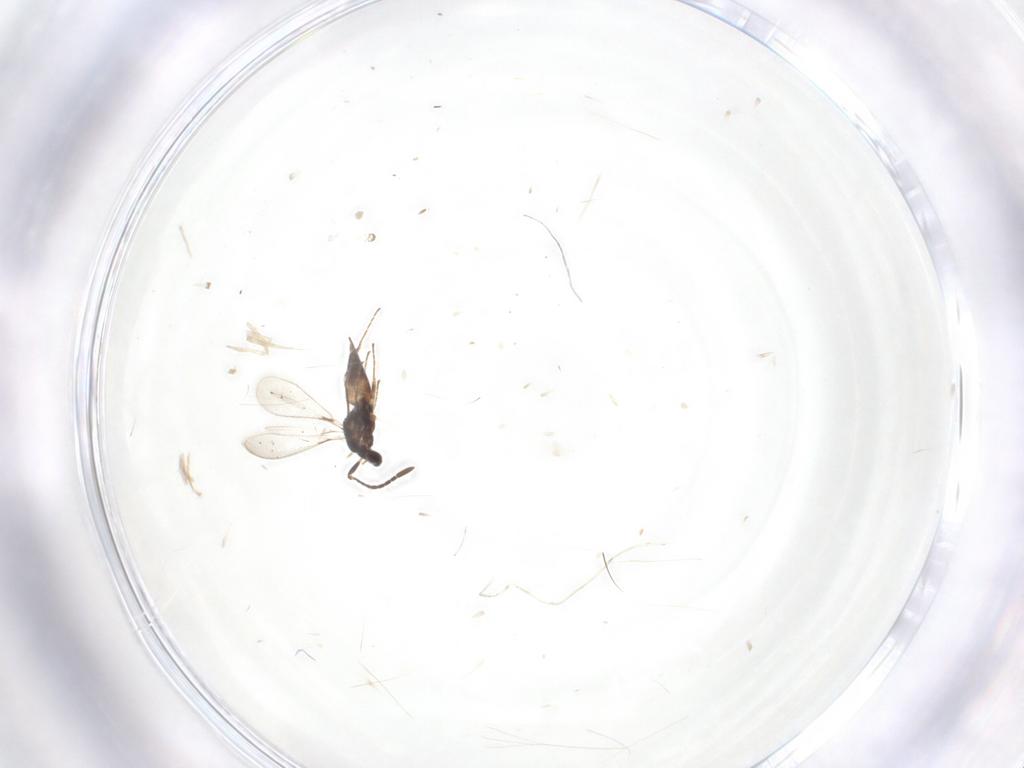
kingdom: Animalia
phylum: Arthropoda
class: Insecta
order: Hymenoptera
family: Mymaridae
